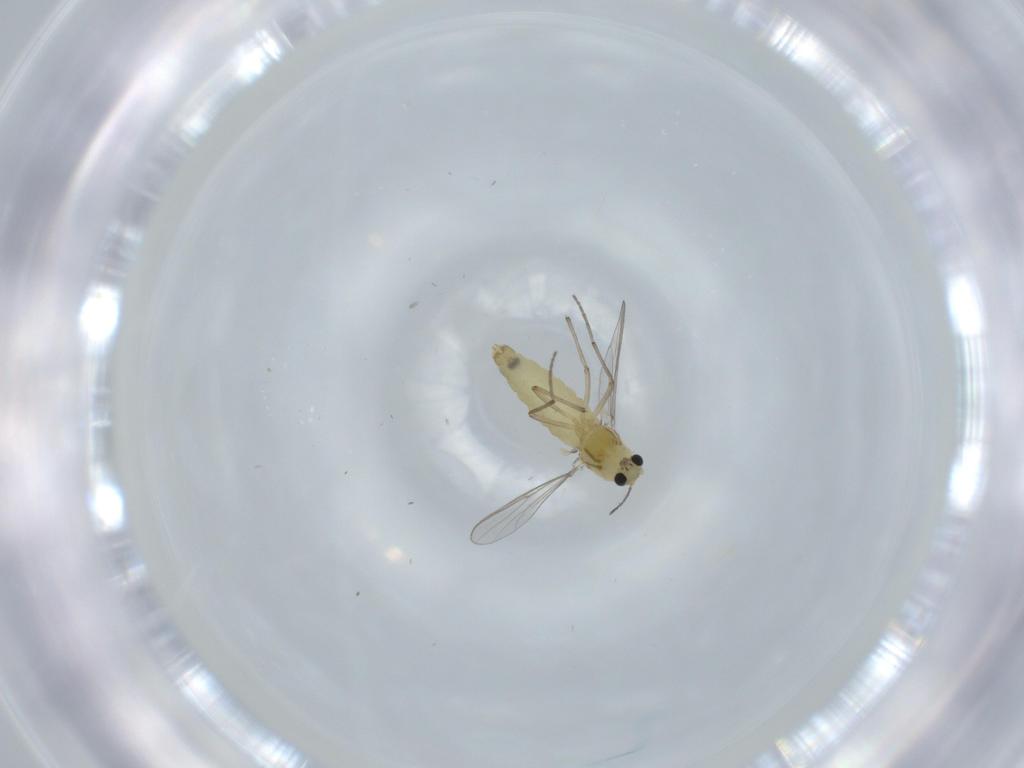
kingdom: Animalia
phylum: Arthropoda
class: Insecta
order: Diptera
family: Chironomidae
